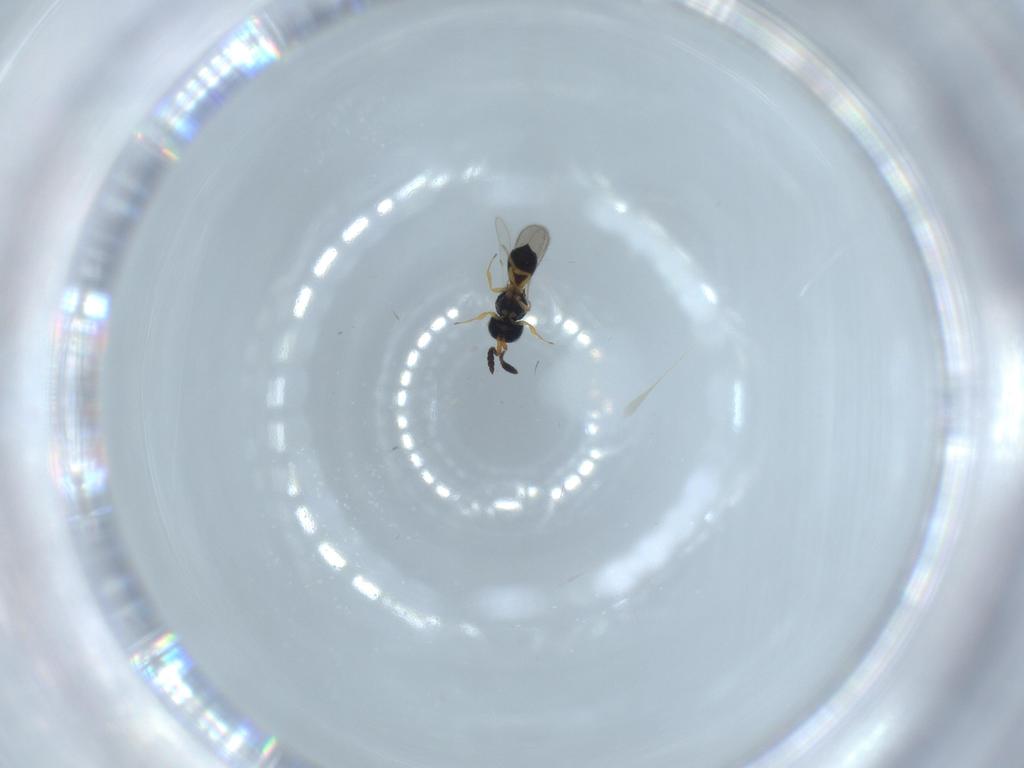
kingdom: Animalia
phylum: Arthropoda
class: Insecta
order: Hymenoptera
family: Scelionidae
